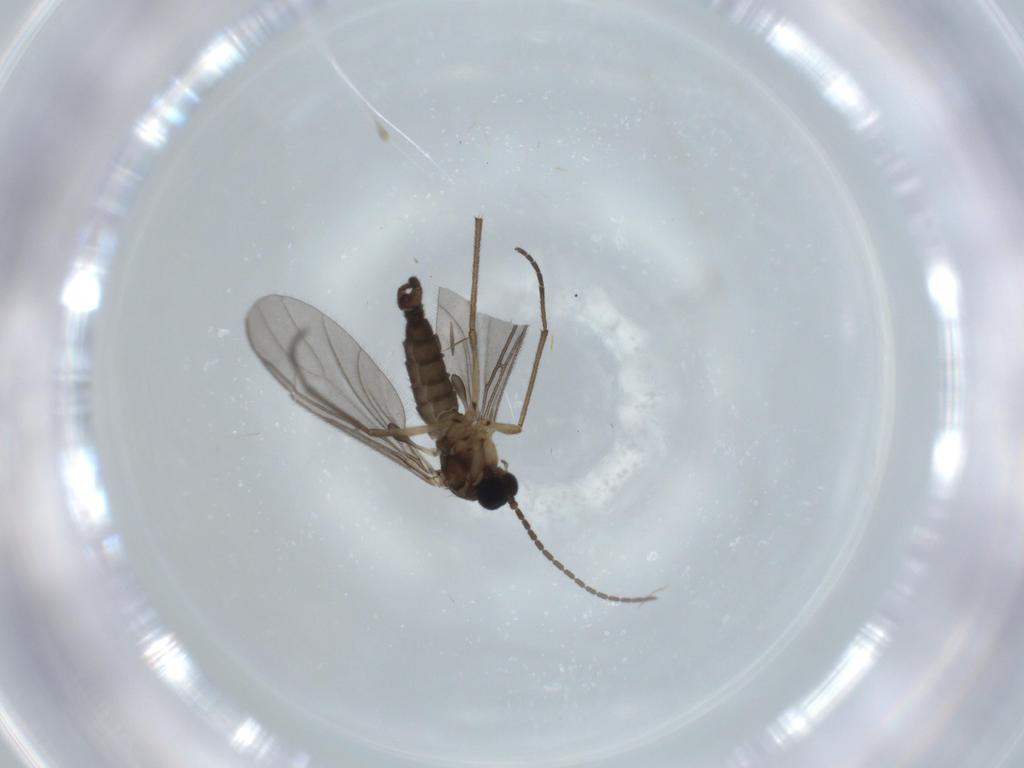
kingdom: Animalia
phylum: Arthropoda
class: Insecta
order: Diptera
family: Sciaridae
